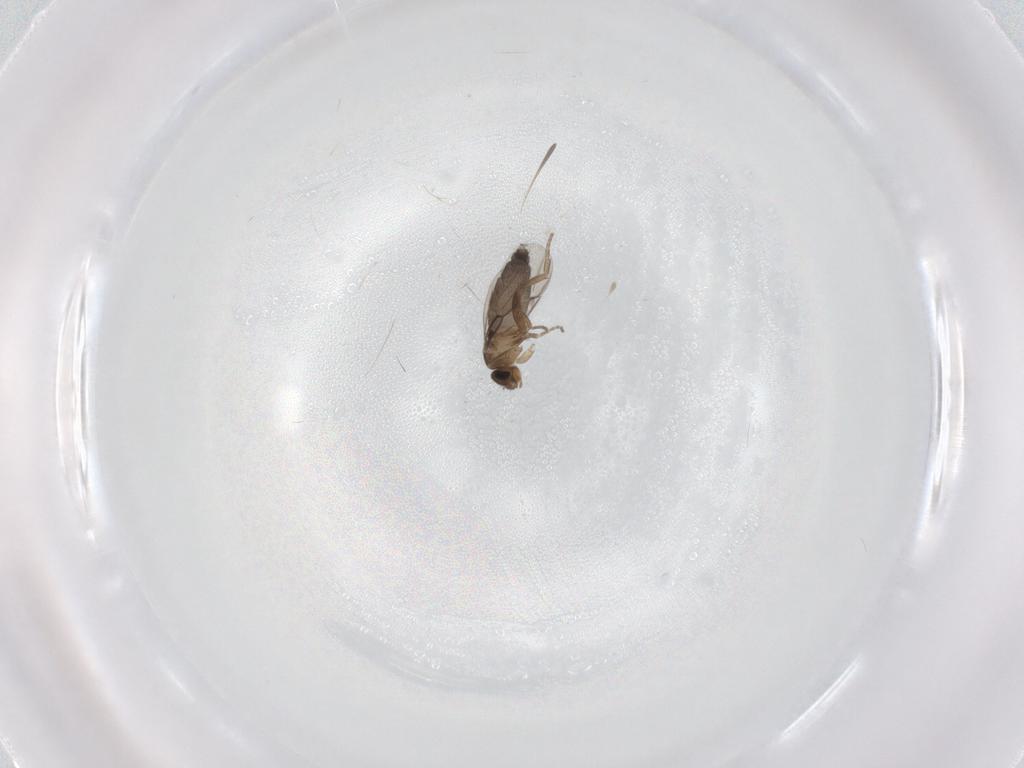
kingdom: Animalia
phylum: Arthropoda
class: Insecta
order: Diptera
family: Phoridae
